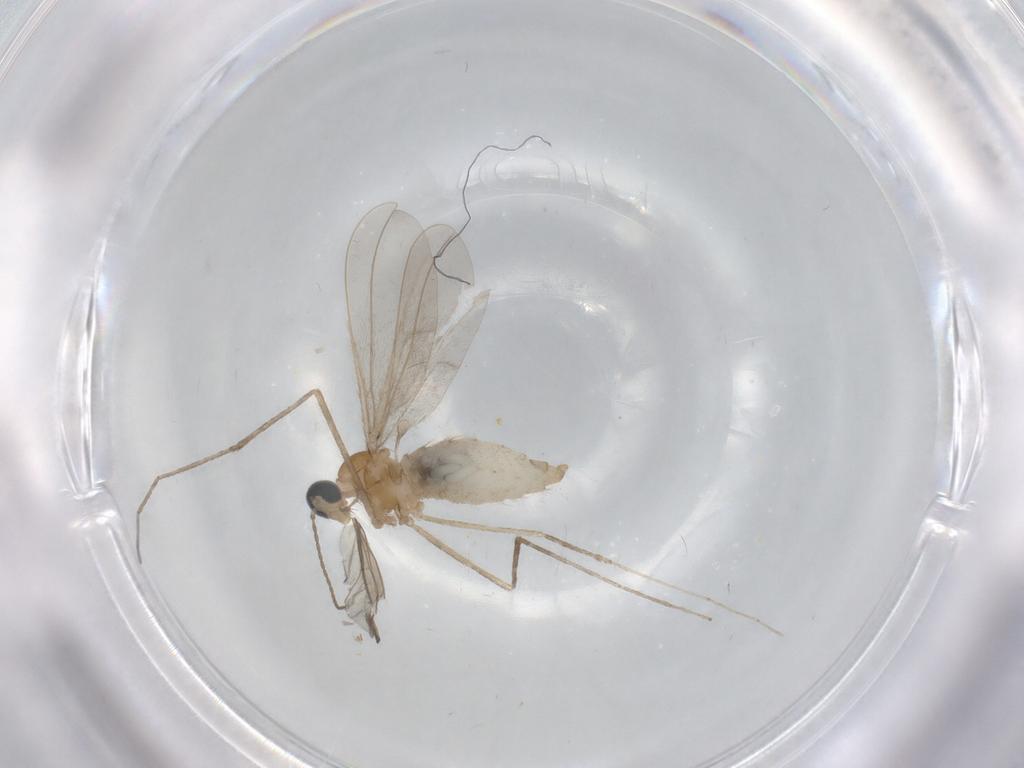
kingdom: Animalia
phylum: Arthropoda
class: Insecta
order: Diptera
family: Cecidomyiidae
